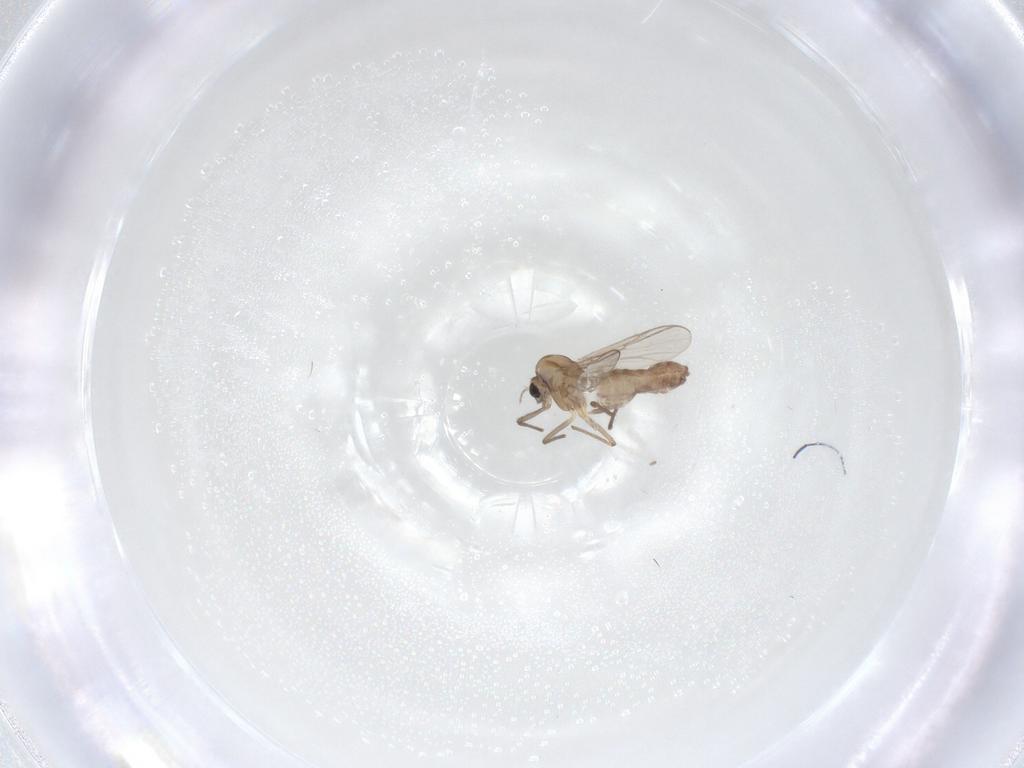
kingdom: Animalia
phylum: Arthropoda
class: Insecta
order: Diptera
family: Chironomidae
